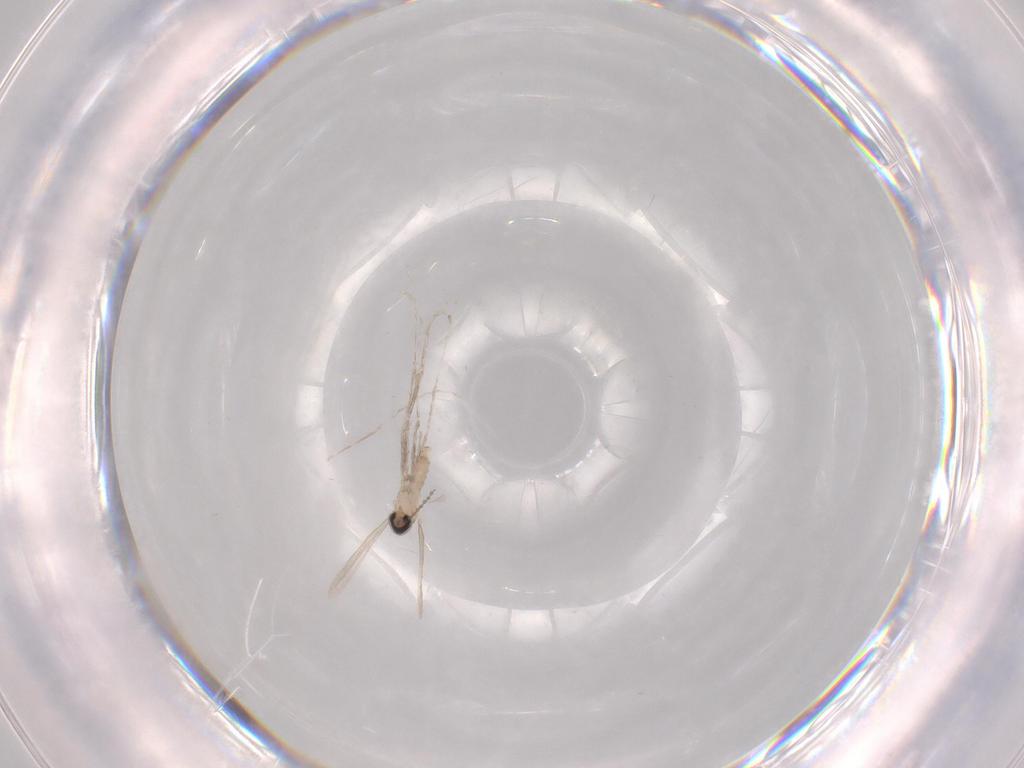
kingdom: Animalia
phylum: Arthropoda
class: Insecta
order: Diptera
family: Cecidomyiidae
